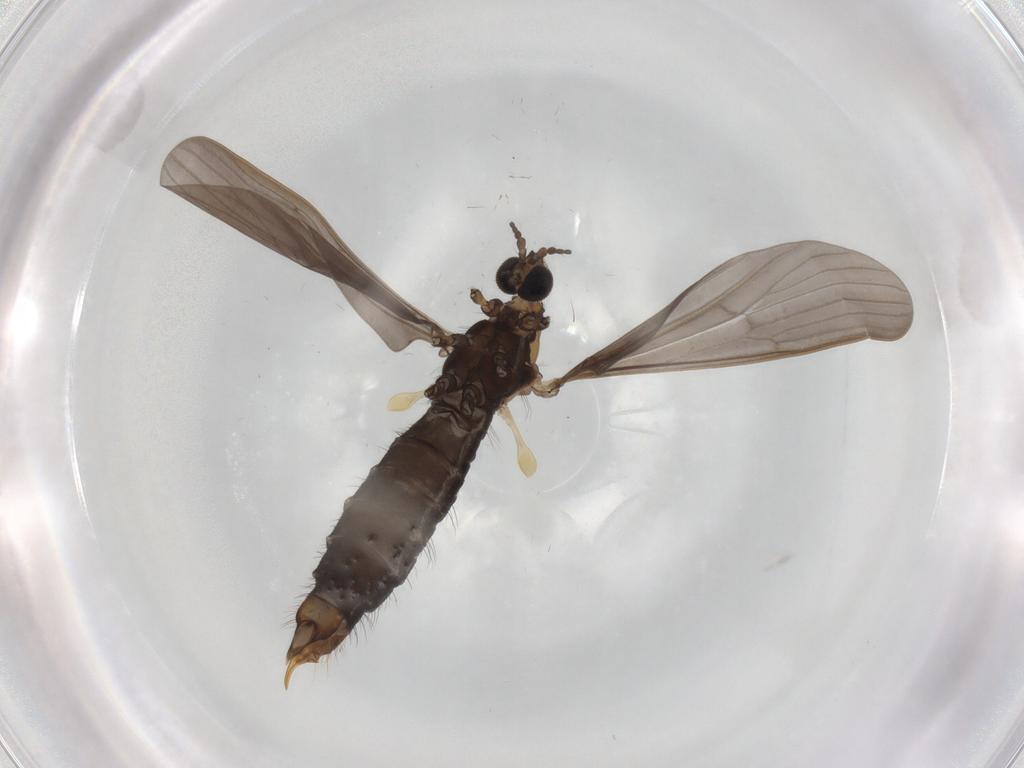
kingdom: Animalia
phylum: Arthropoda
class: Insecta
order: Diptera
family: Limoniidae
